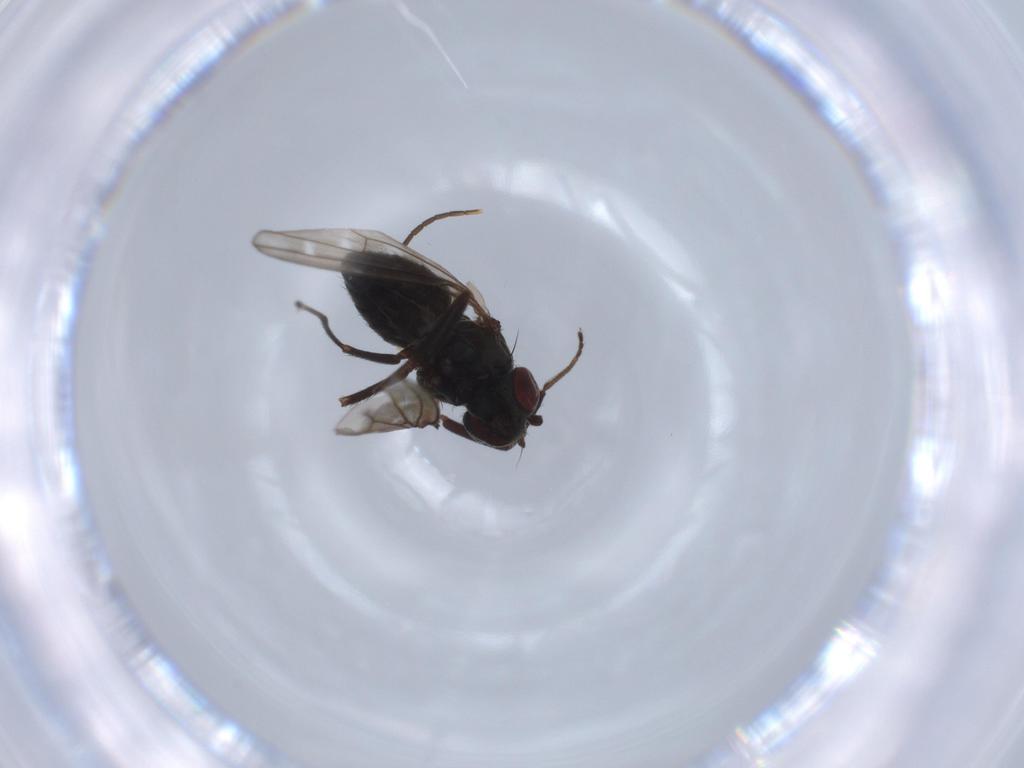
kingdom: Animalia
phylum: Arthropoda
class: Insecta
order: Diptera
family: Ephydridae
